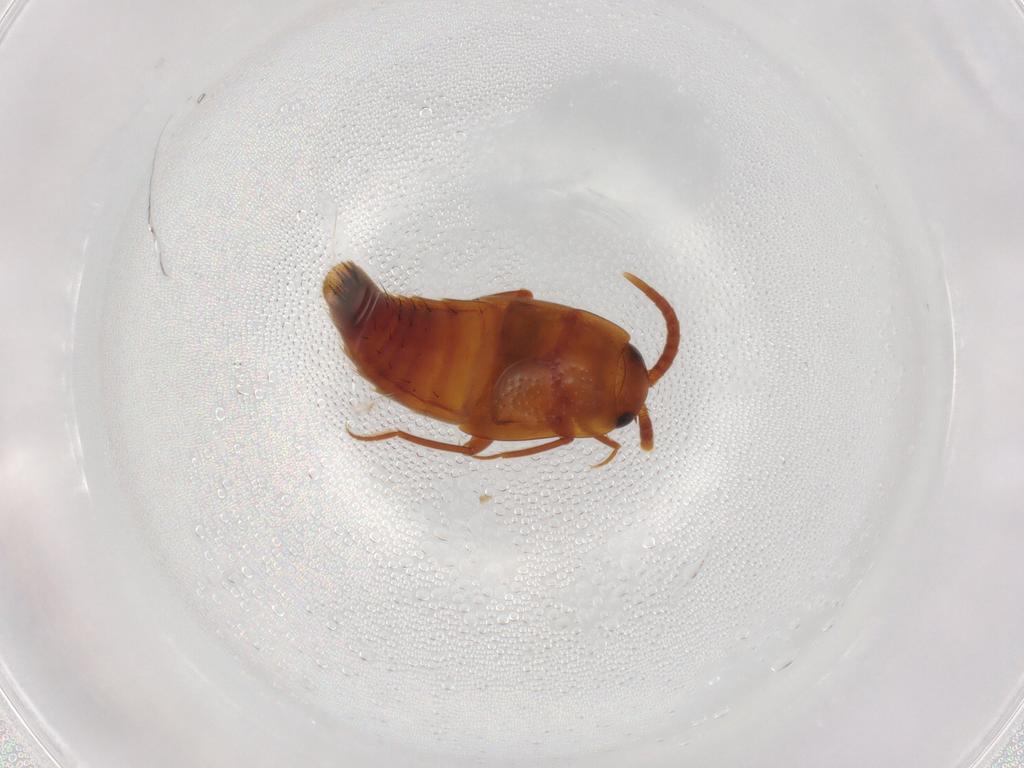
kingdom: Animalia
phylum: Arthropoda
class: Insecta
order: Coleoptera
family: Staphylinidae
